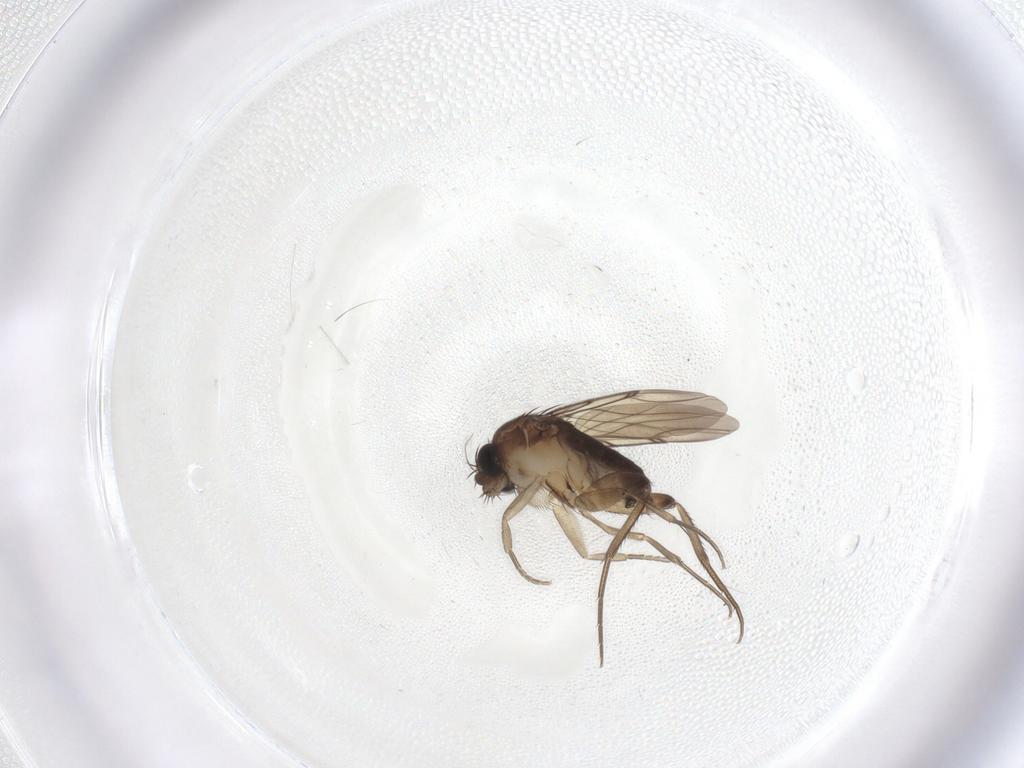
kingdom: Animalia
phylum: Arthropoda
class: Insecta
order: Diptera
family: Phoridae
